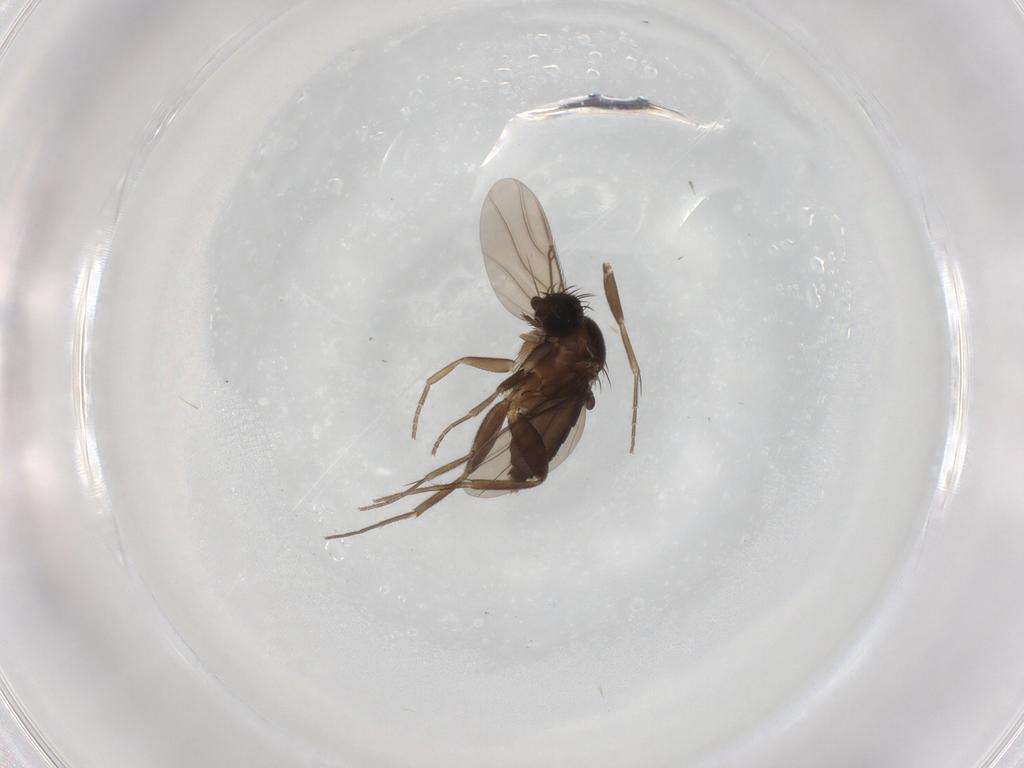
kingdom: Animalia
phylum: Arthropoda
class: Insecta
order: Diptera
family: Phoridae
